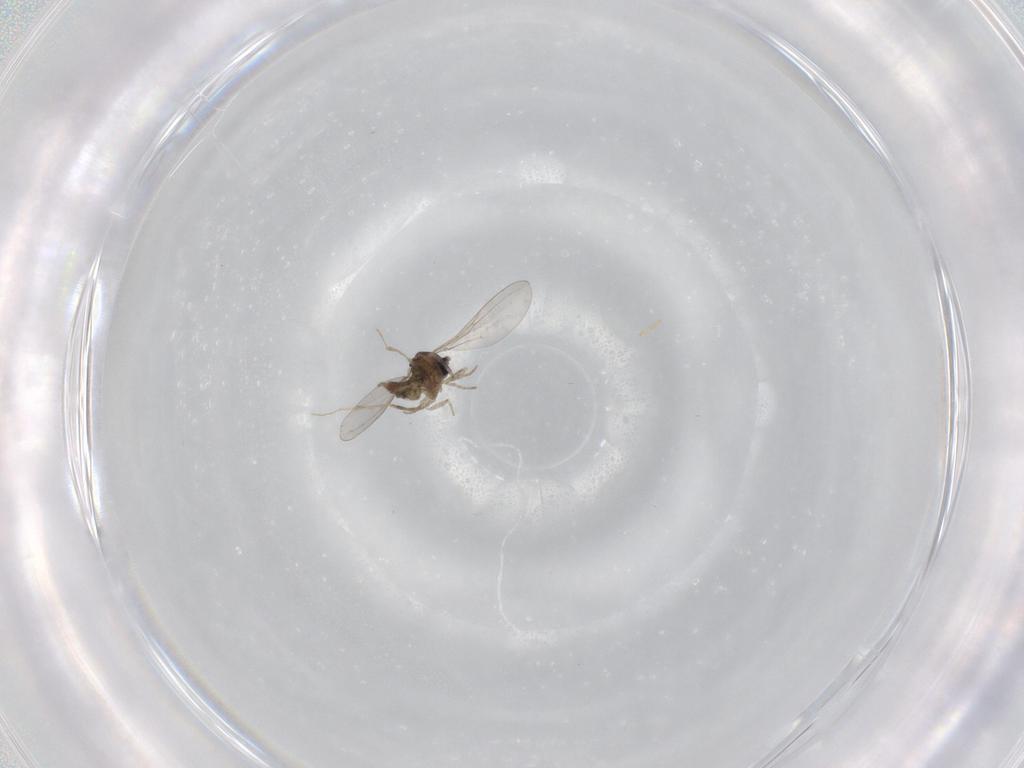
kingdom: Animalia
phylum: Arthropoda
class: Insecta
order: Diptera
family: Cecidomyiidae
